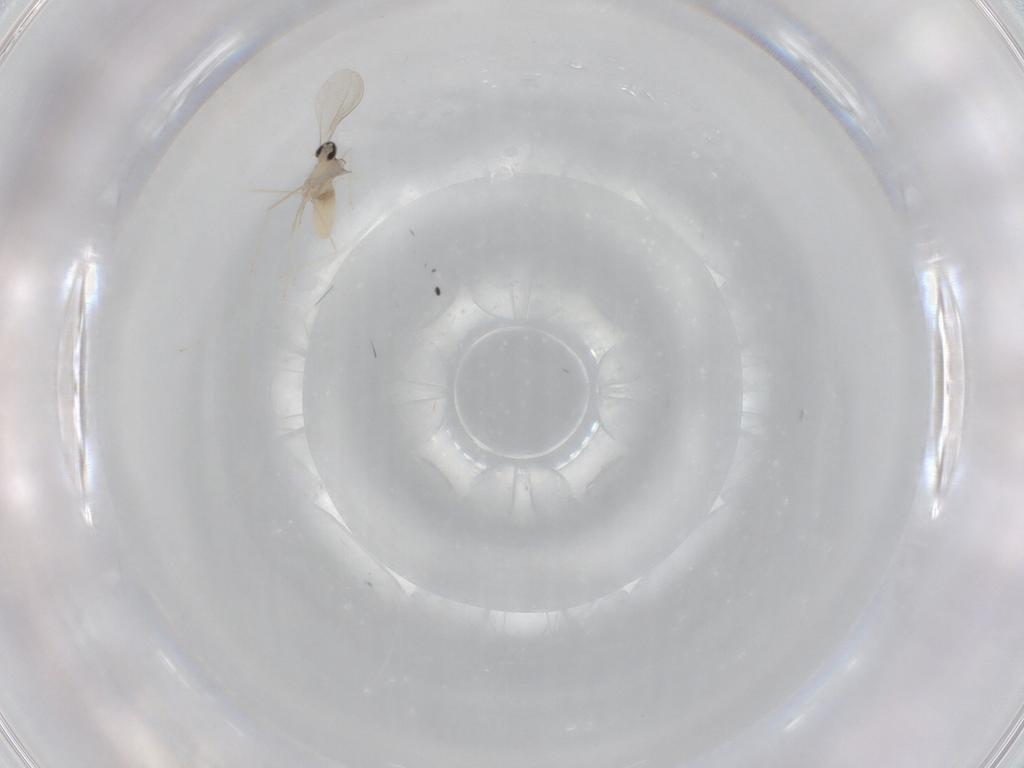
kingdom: Animalia
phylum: Arthropoda
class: Insecta
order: Diptera
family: Cecidomyiidae
